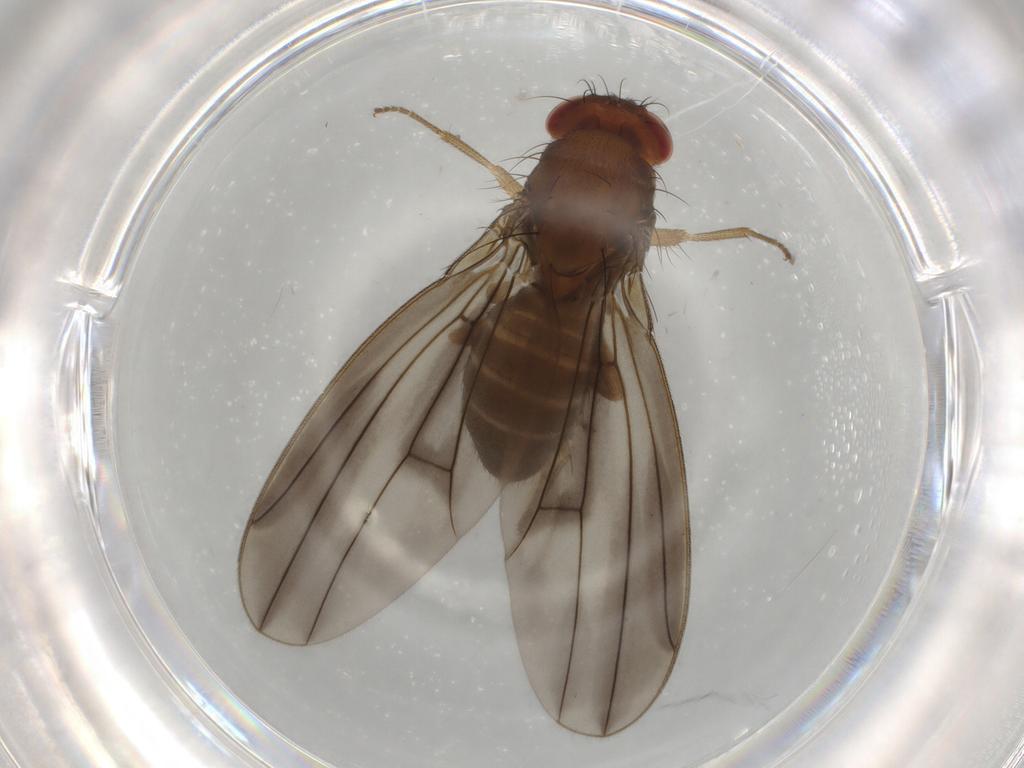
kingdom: Animalia
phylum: Arthropoda
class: Insecta
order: Diptera
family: Drosophilidae
